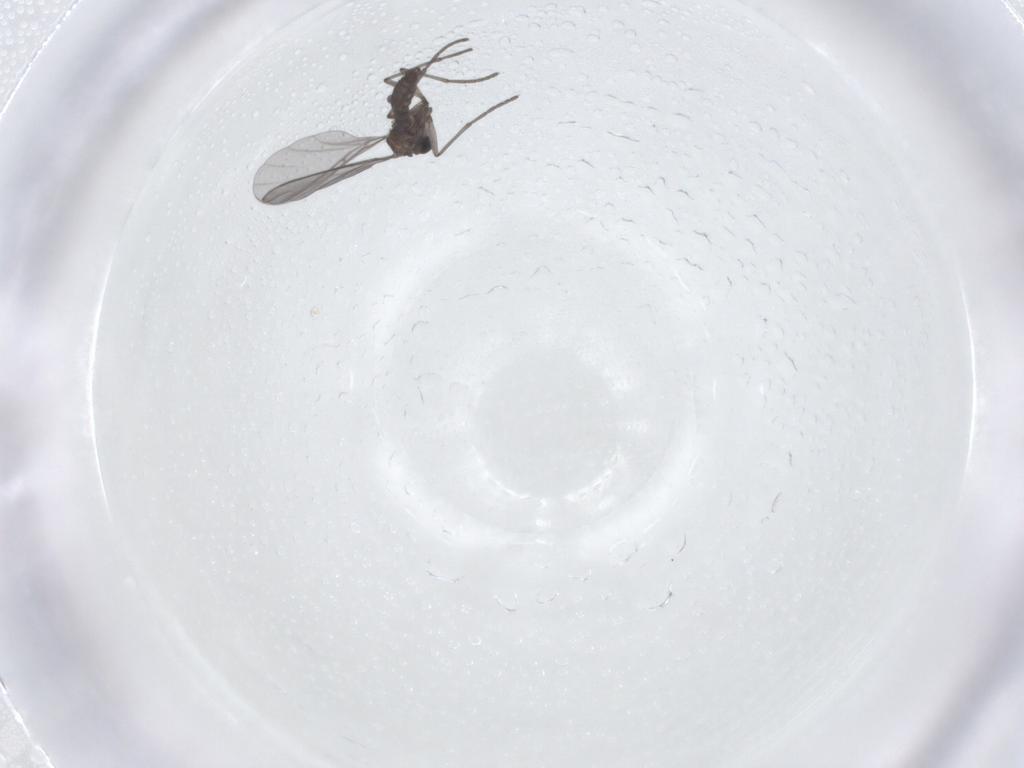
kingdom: Animalia
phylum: Arthropoda
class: Insecta
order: Diptera
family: Sciaridae
